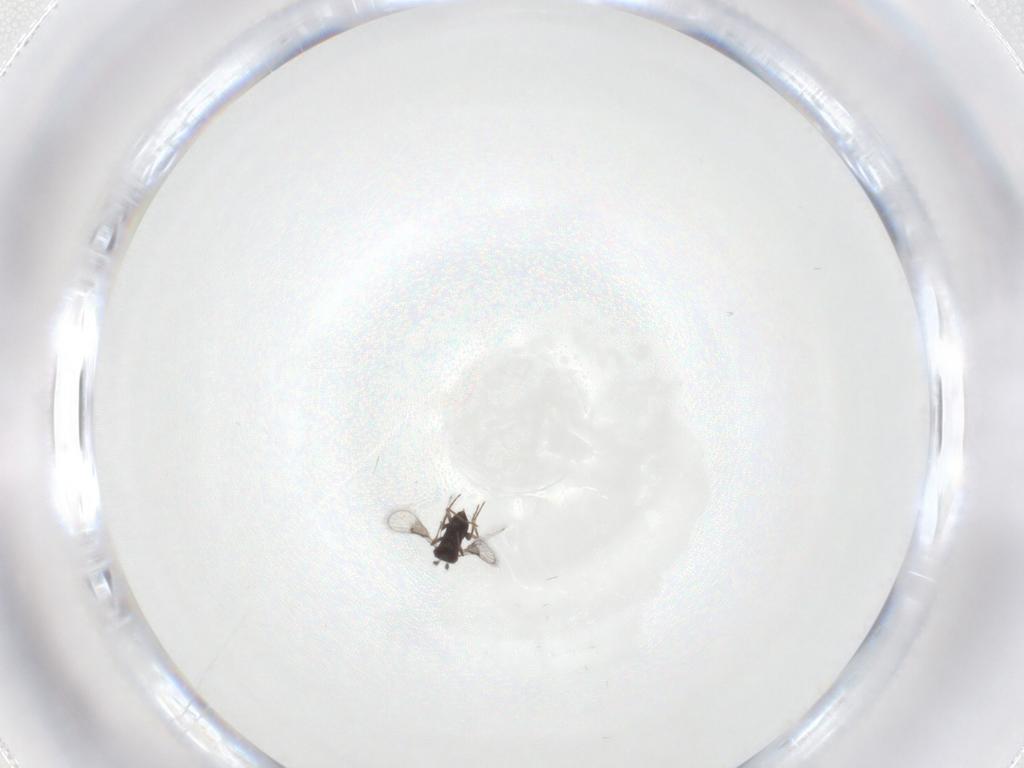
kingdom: Animalia
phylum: Arthropoda
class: Insecta
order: Hymenoptera
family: Trichogrammatidae
